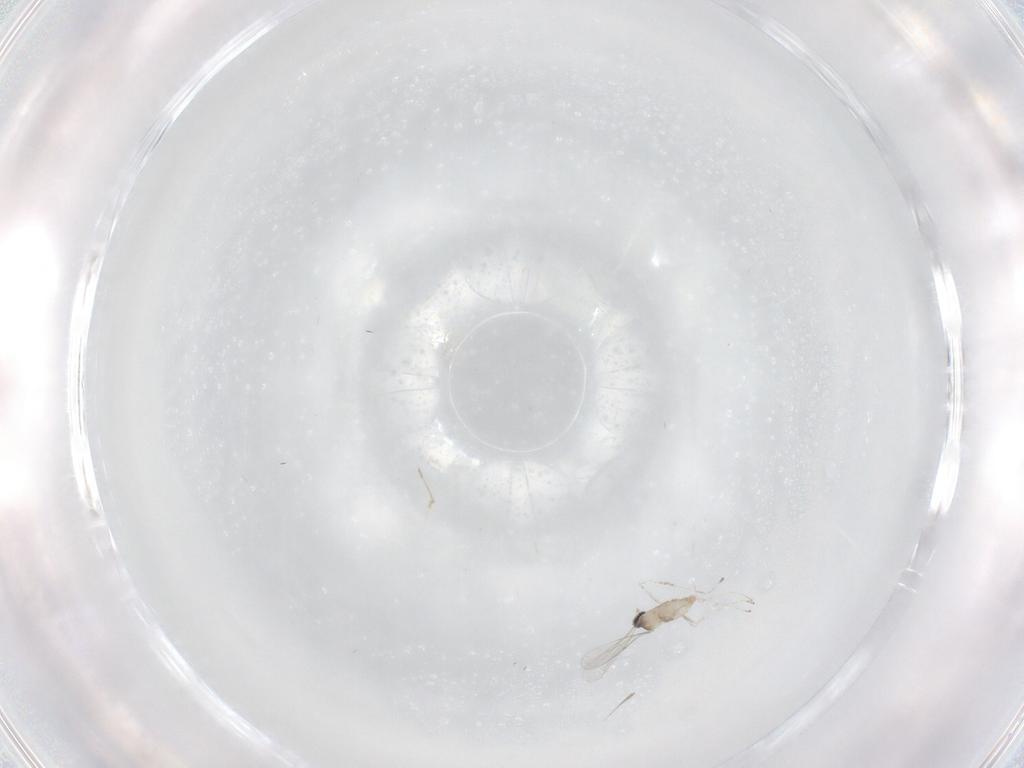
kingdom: Animalia
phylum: Arthropoda
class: Insecta
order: Diptera
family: Cecidomyiidae
